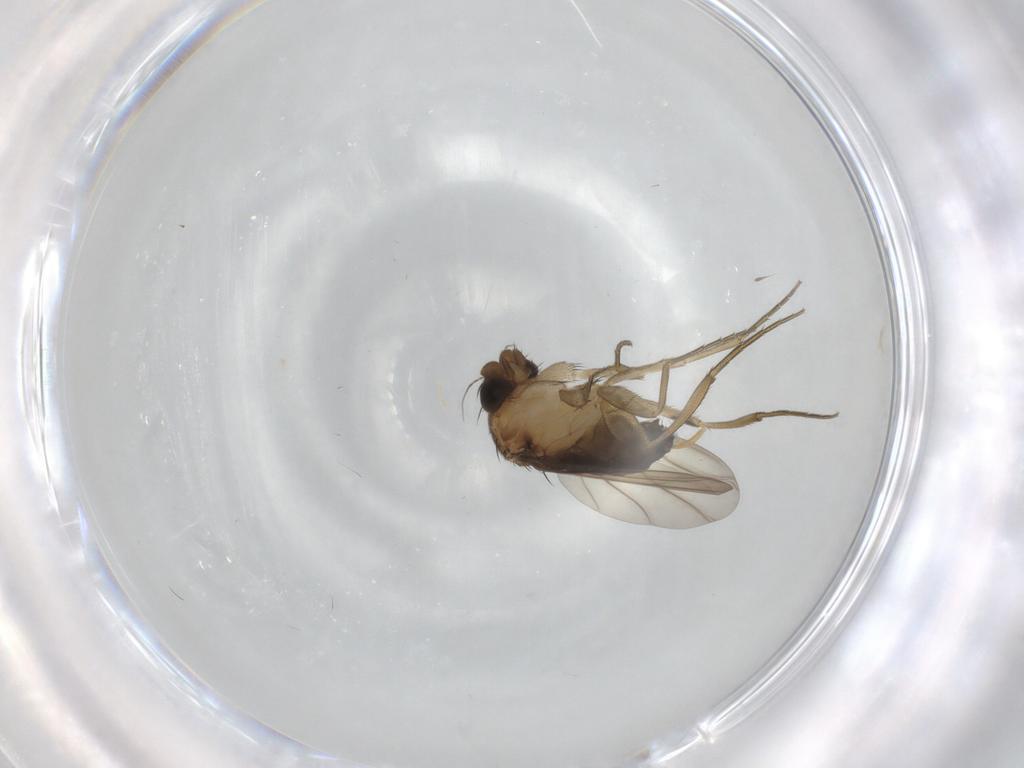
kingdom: Animalia
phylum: Arthropoda
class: Insecta
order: Diptera
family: Phoridae
